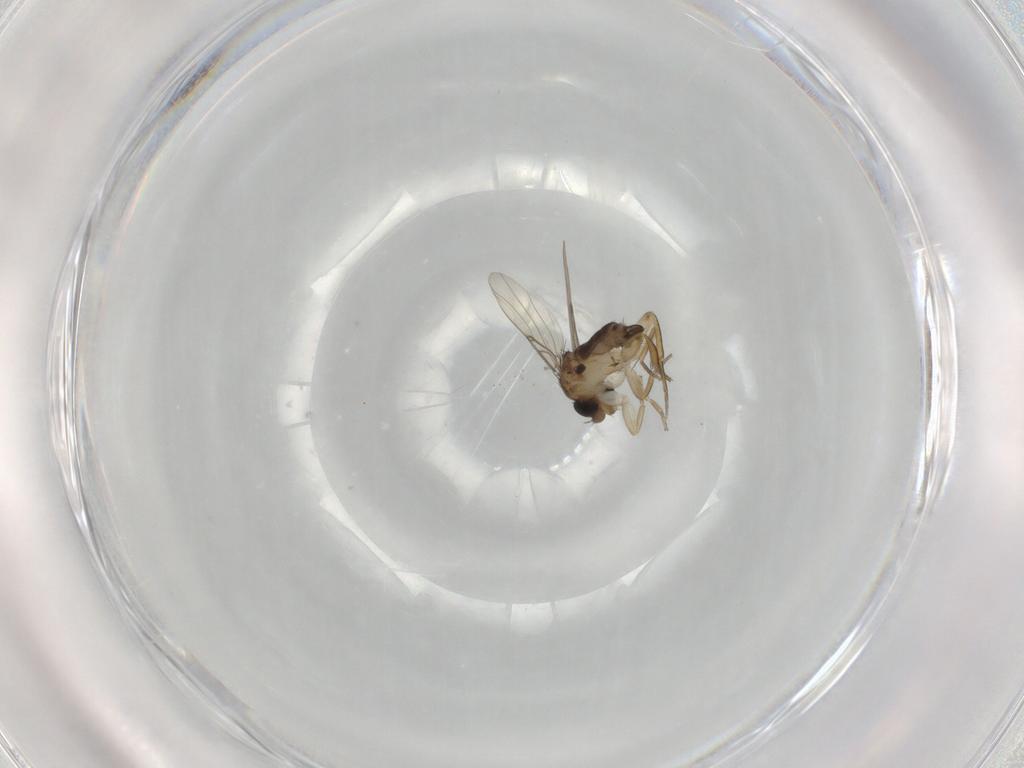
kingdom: Animalia
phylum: Arthropoda
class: Insecta
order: Diptera
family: Phoridae
